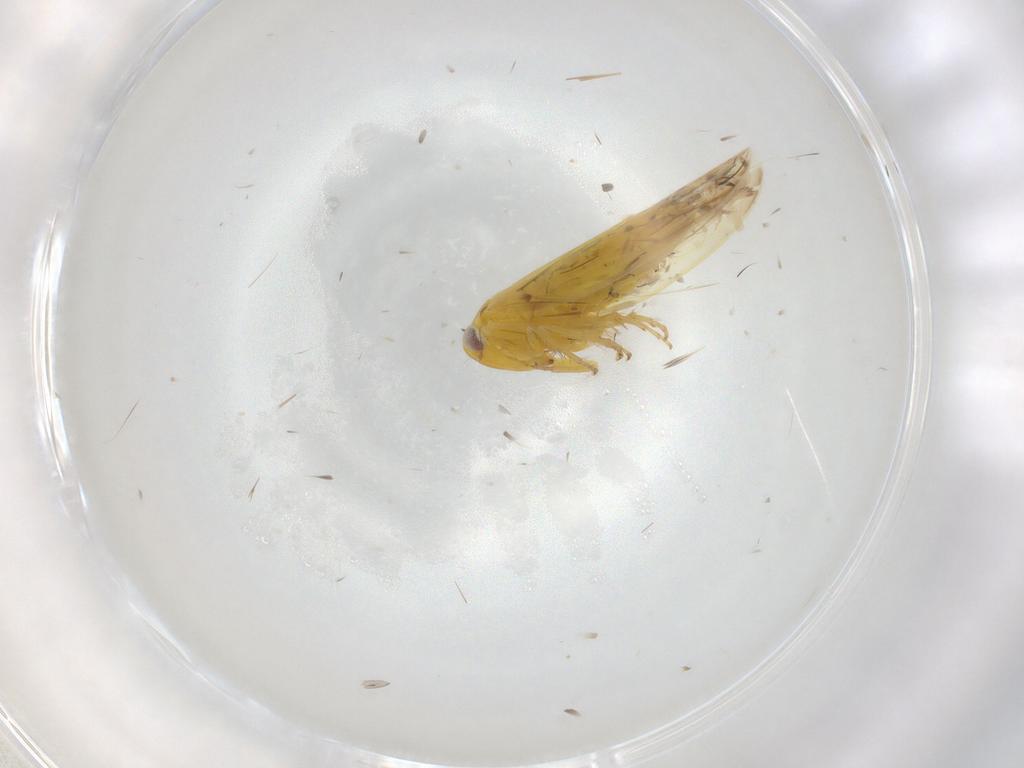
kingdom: Animalia
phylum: Arthropoda
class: Insecta
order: Hemiptera
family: Cicadellidae
